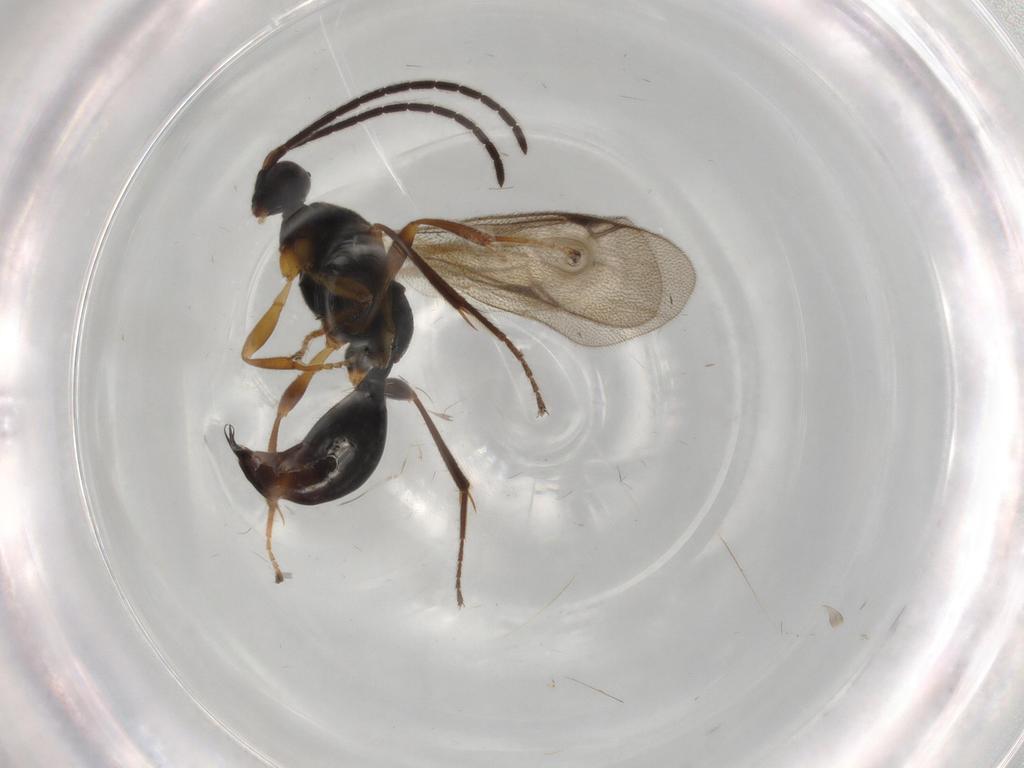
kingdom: Animalia
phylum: Arthropoda
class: Insecta
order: Hymenoptera
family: Proctotrupidae
